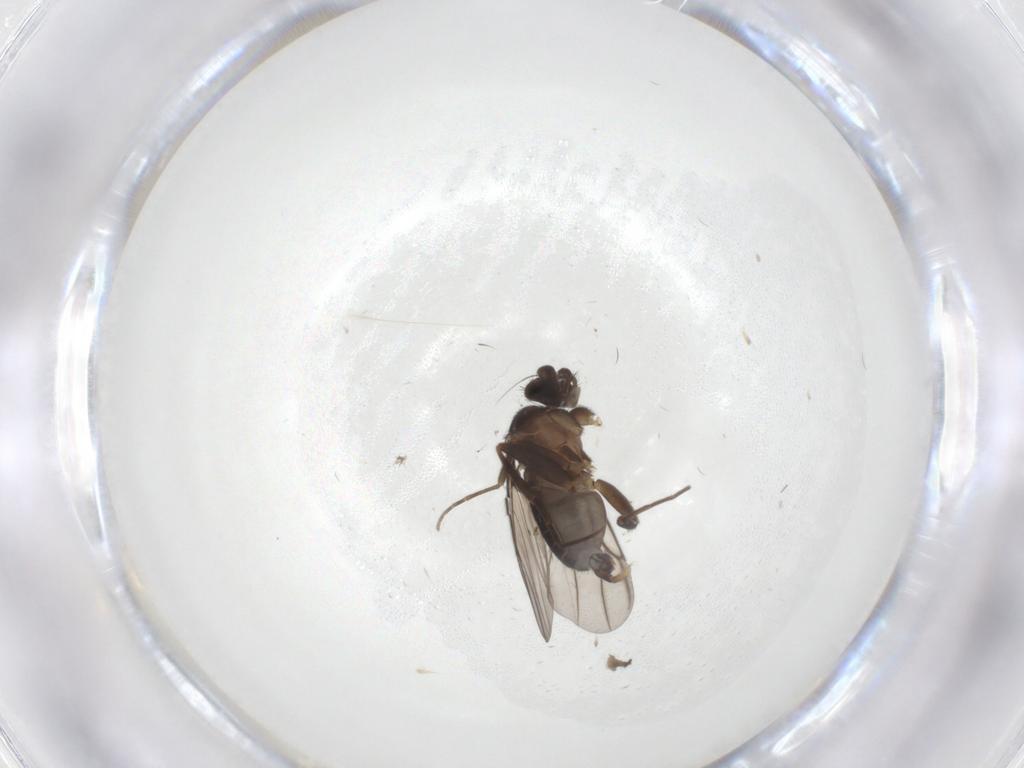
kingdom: Animalia
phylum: Arthropoda
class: Insecta
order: Diptera
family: Phoridae
